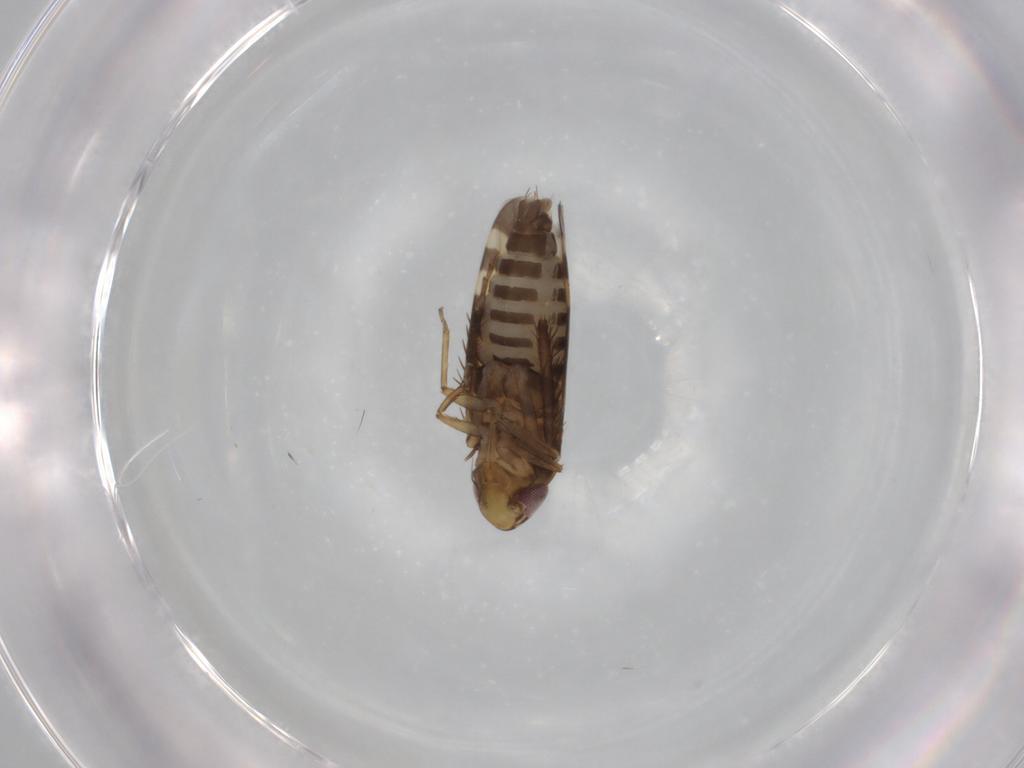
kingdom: Animalia
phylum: Arthropoda
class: Insecta
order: Hemiptera
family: Cicadellidae
